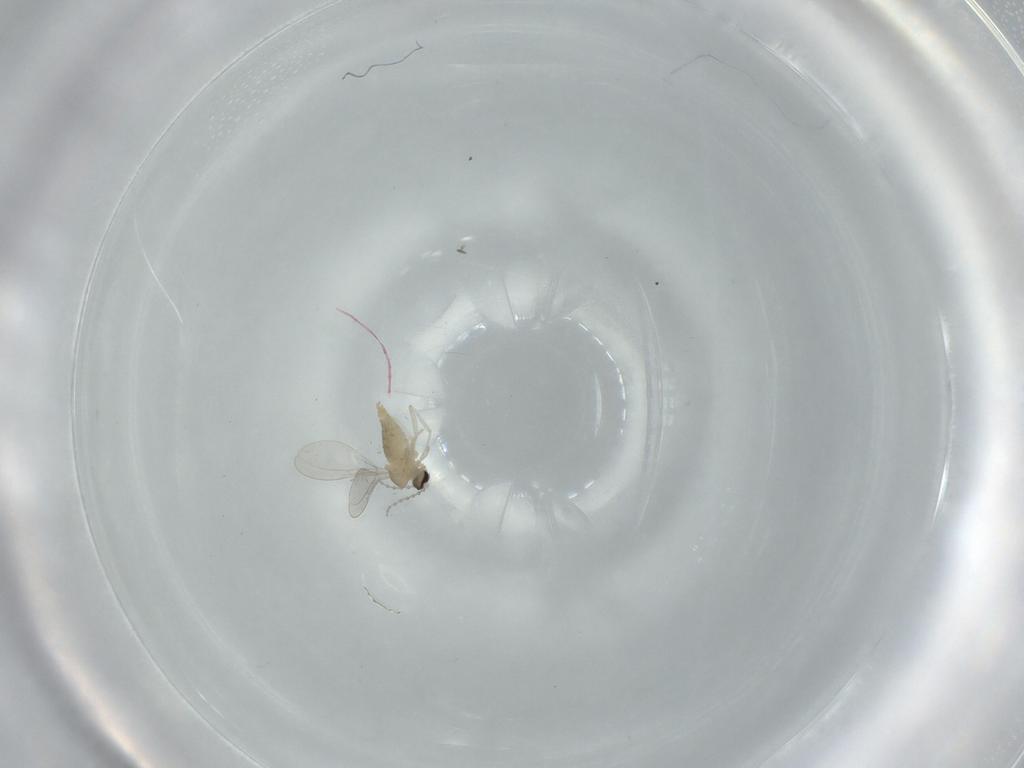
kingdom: Animalia
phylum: Arthropoda
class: Insecta
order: Diptera
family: Cecidomyiidae
